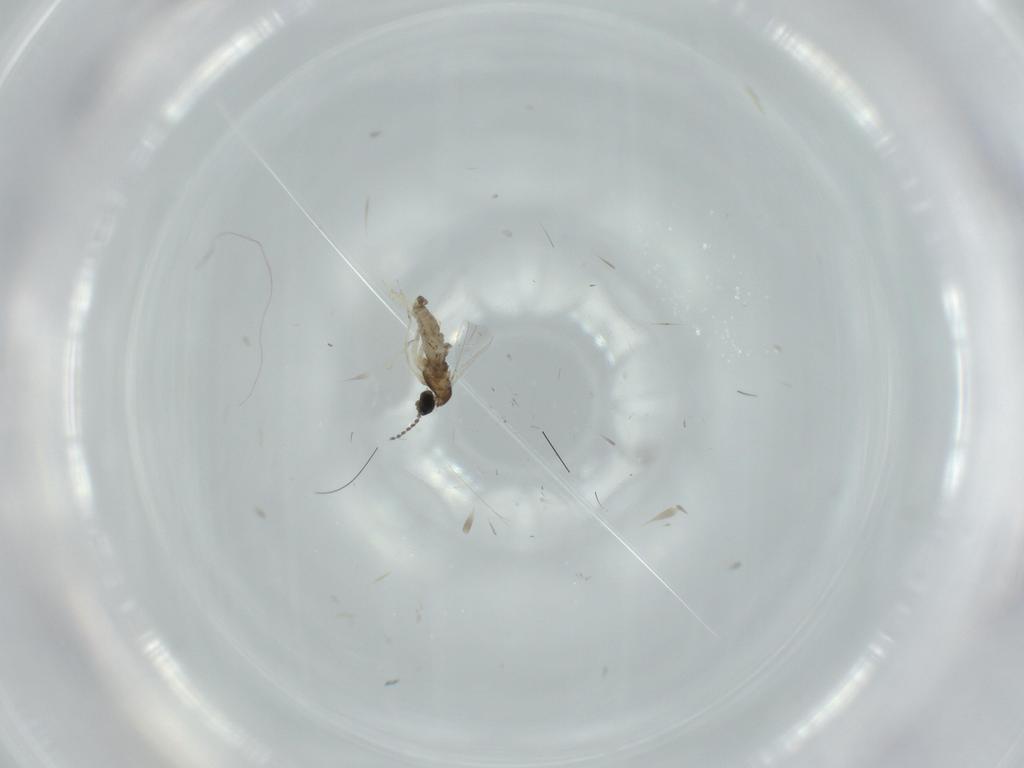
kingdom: Animalia
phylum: Arthropoda
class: Insecta
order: Diptera
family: Cecidomyiidae
